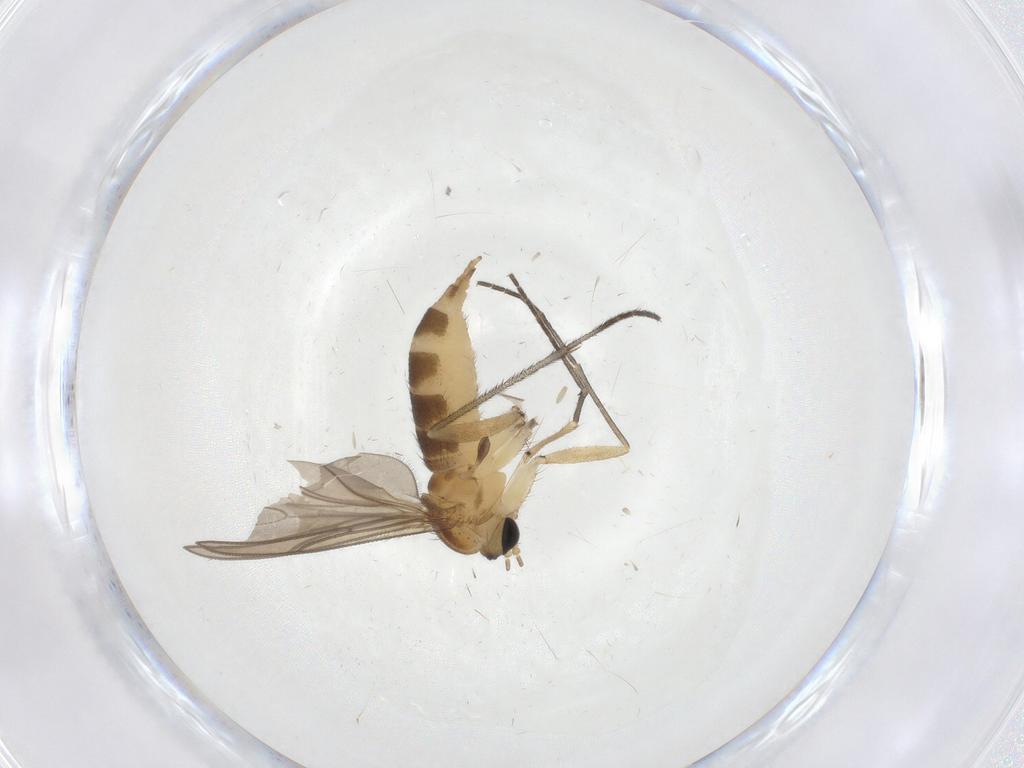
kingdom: Animalia
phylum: Arthropoda
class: Insecta
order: Diptera
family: Sciaridae
